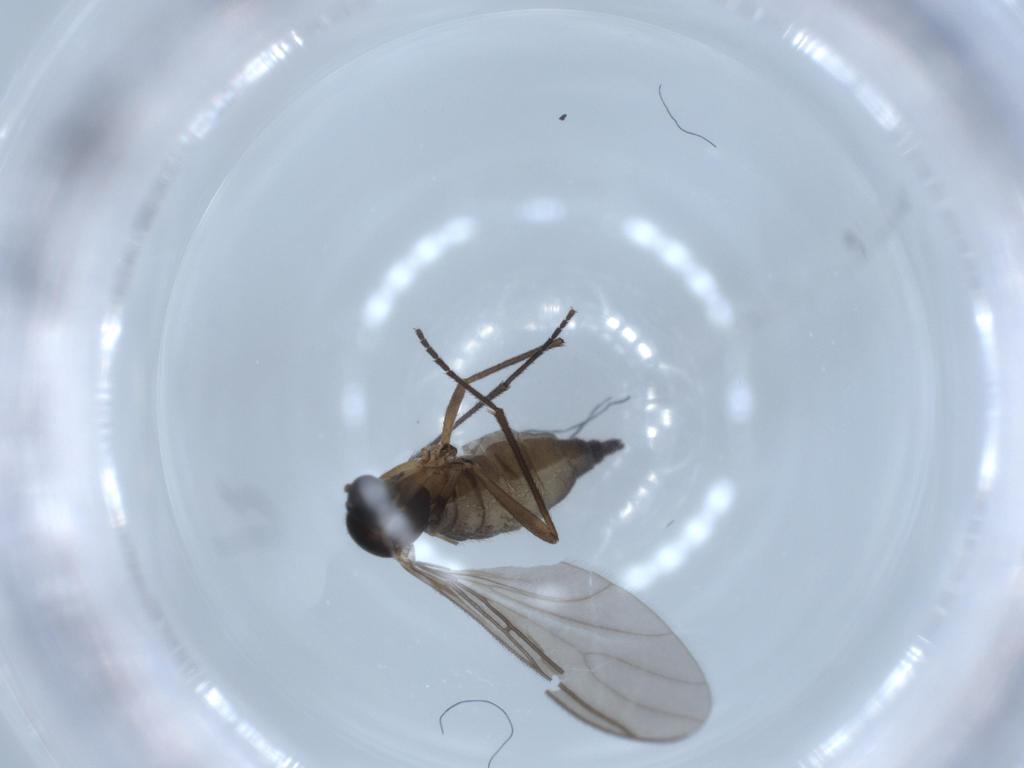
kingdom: Animalia
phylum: Arthropoda
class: Insecta
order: Diptera
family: Sciaridae
